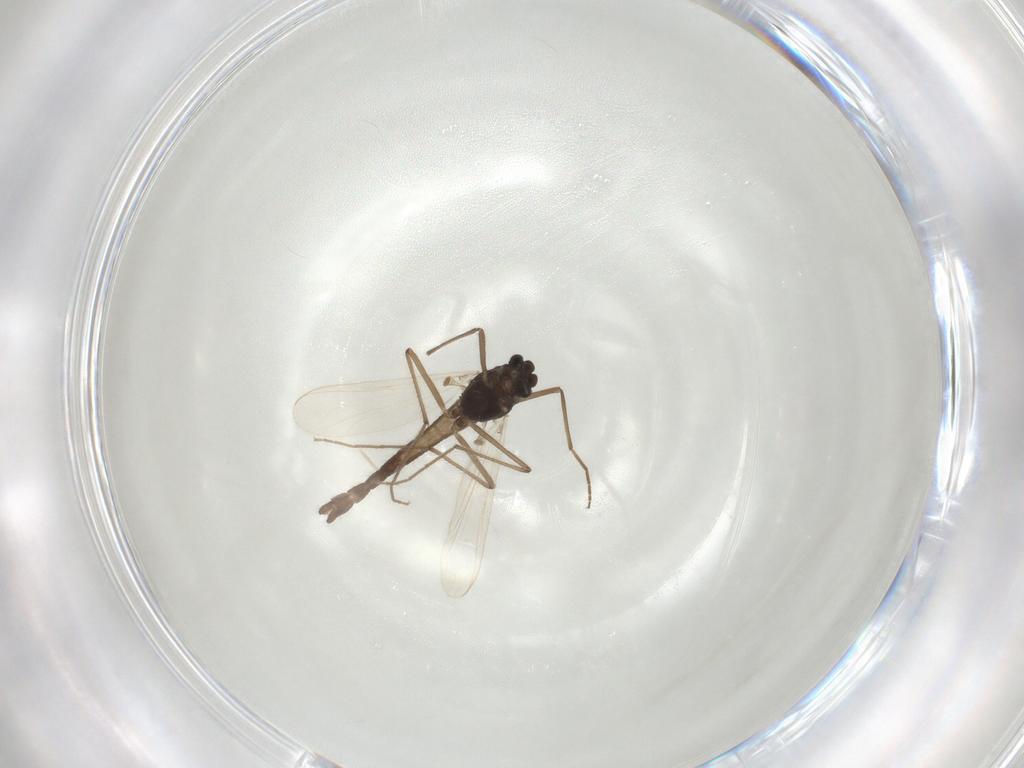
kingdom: Animalia
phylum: Arthropoda
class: Insecta
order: Diptera
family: Chironomidae
